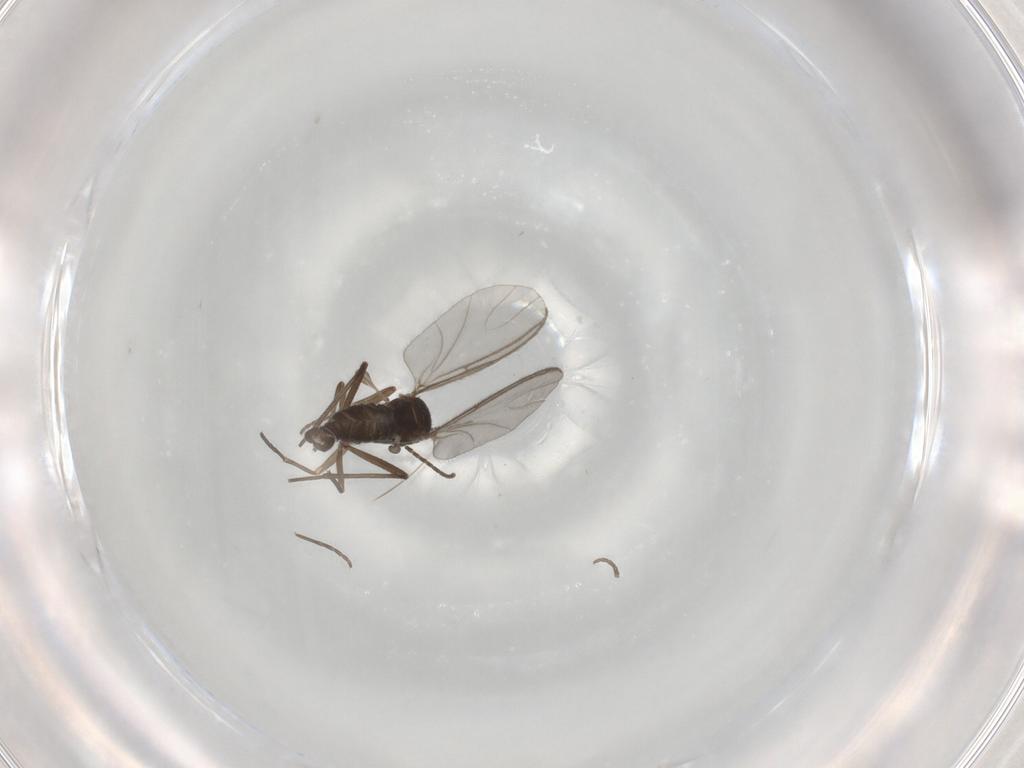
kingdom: Animalia
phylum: Arthropoda
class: Insecta
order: Diptera
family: Sciaridae
